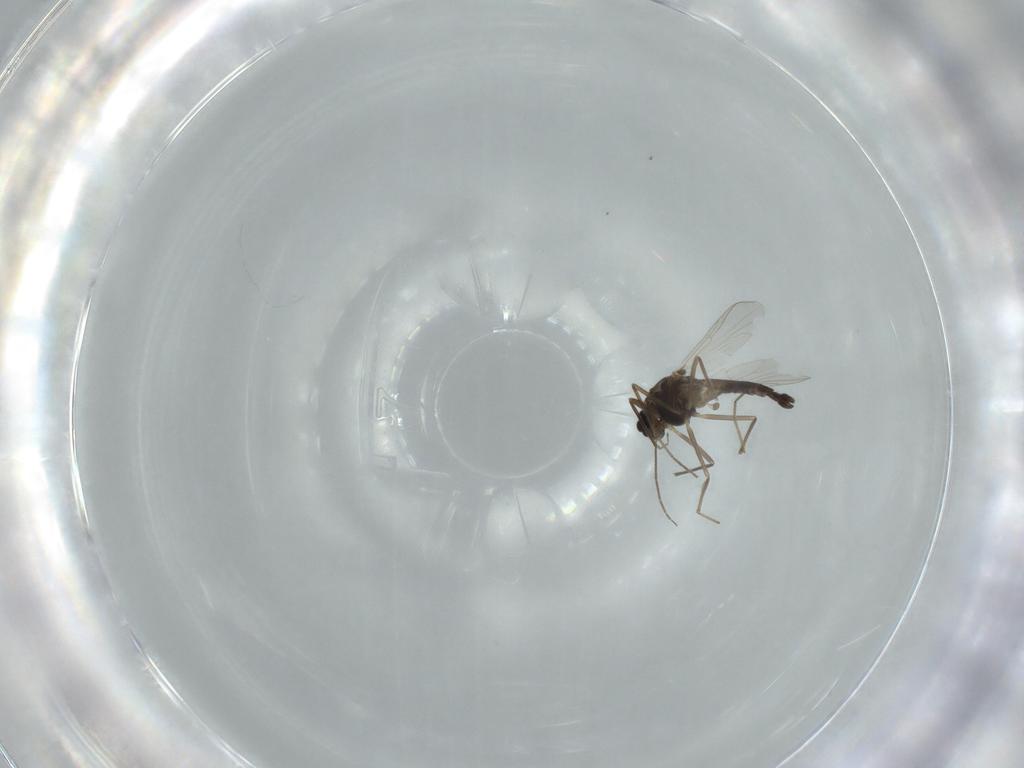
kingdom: Animalia
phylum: Arthropoda
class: Insecta
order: Diptera
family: Chironomidae
